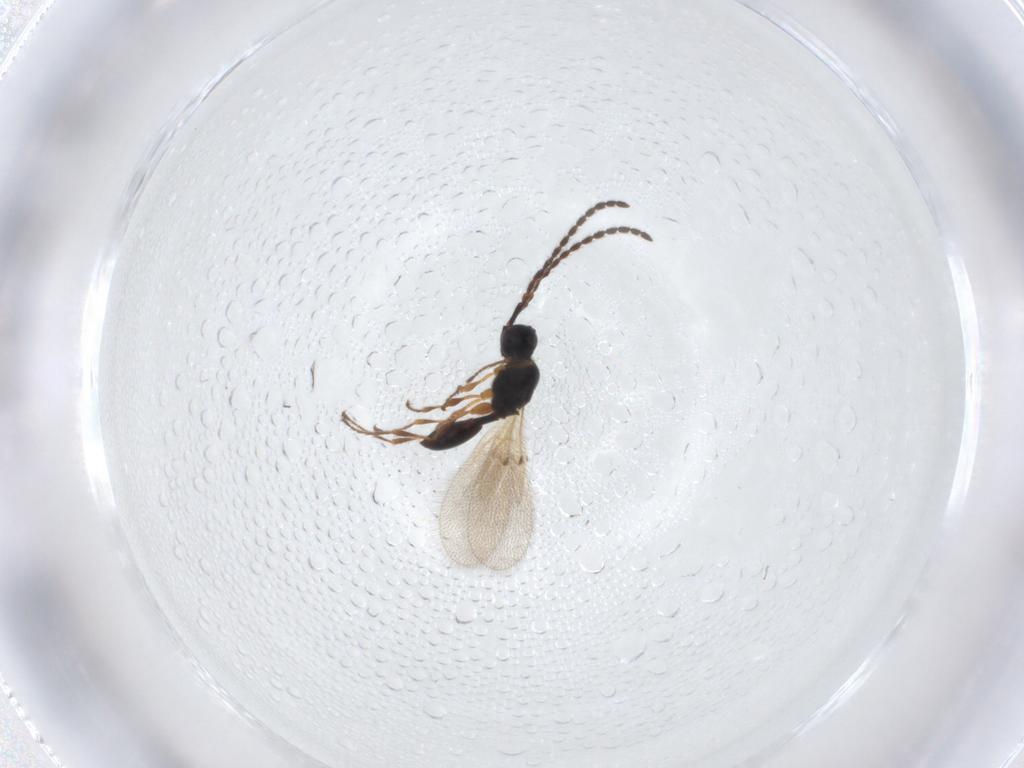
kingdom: Animalia
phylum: Arthropoda
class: Insecta
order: Hymenoptera
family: Diapriidae
